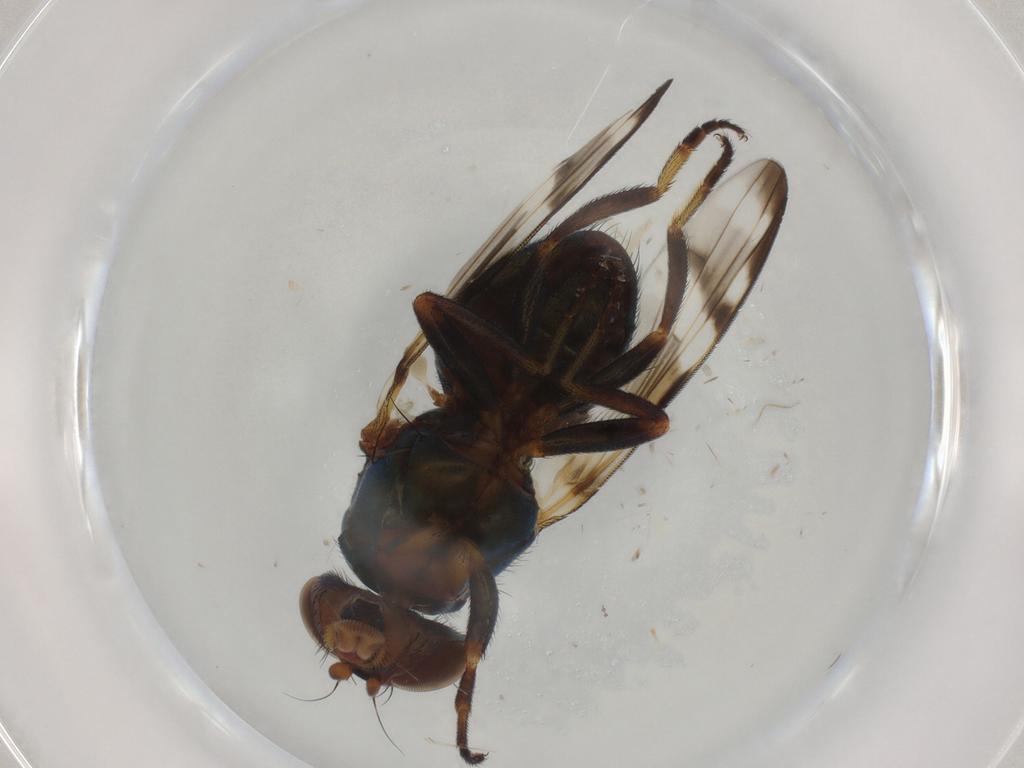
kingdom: Animalia
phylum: Arthropoda
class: Insecta
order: Diptera
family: Ulidiidae
